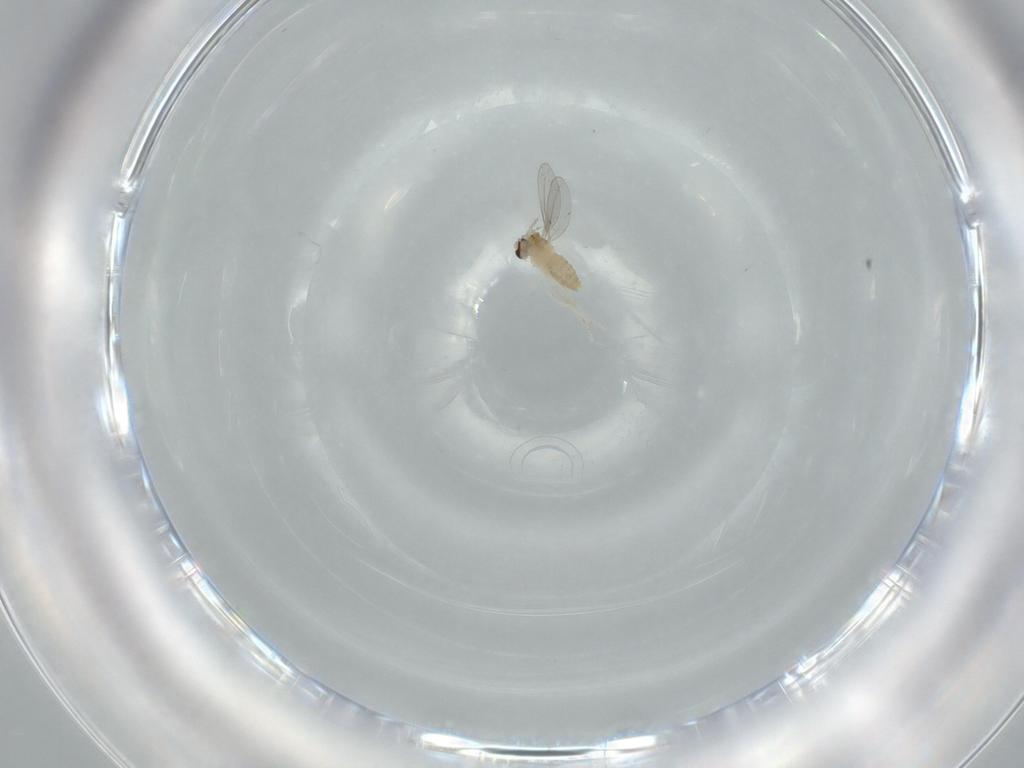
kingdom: Animalia
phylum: Arthropoda
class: Insecta
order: Diptera
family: Cecidomyiidae
